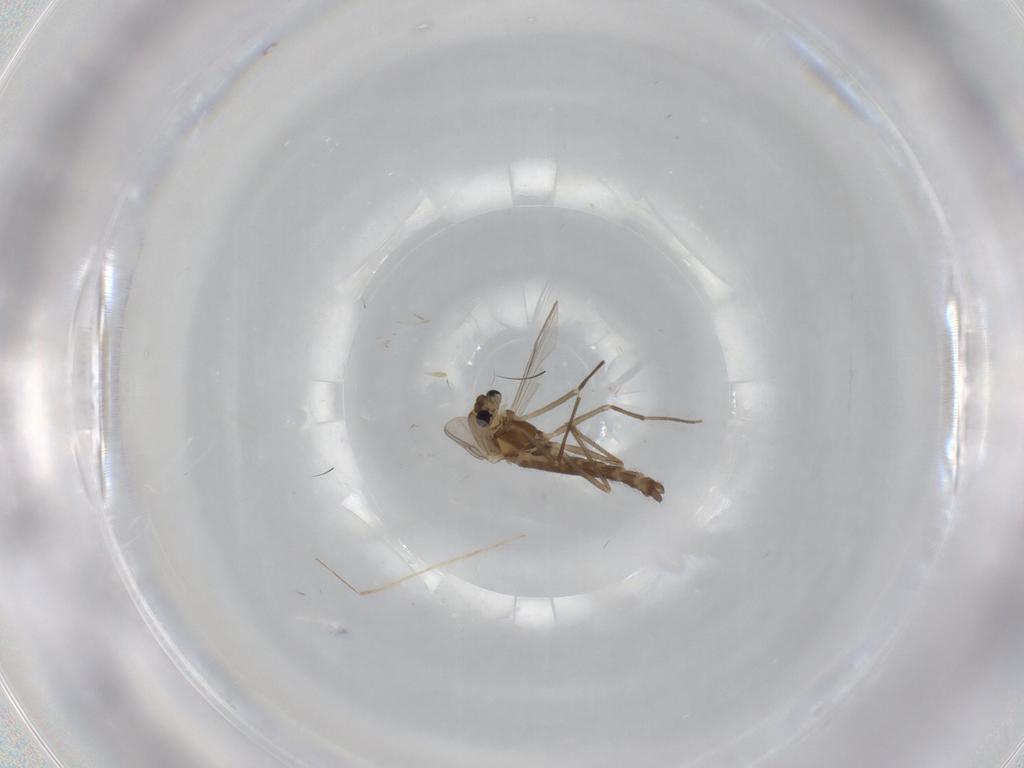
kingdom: Animalia
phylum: Arthropoda
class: Insecta
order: Diptera
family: Chironomidae
